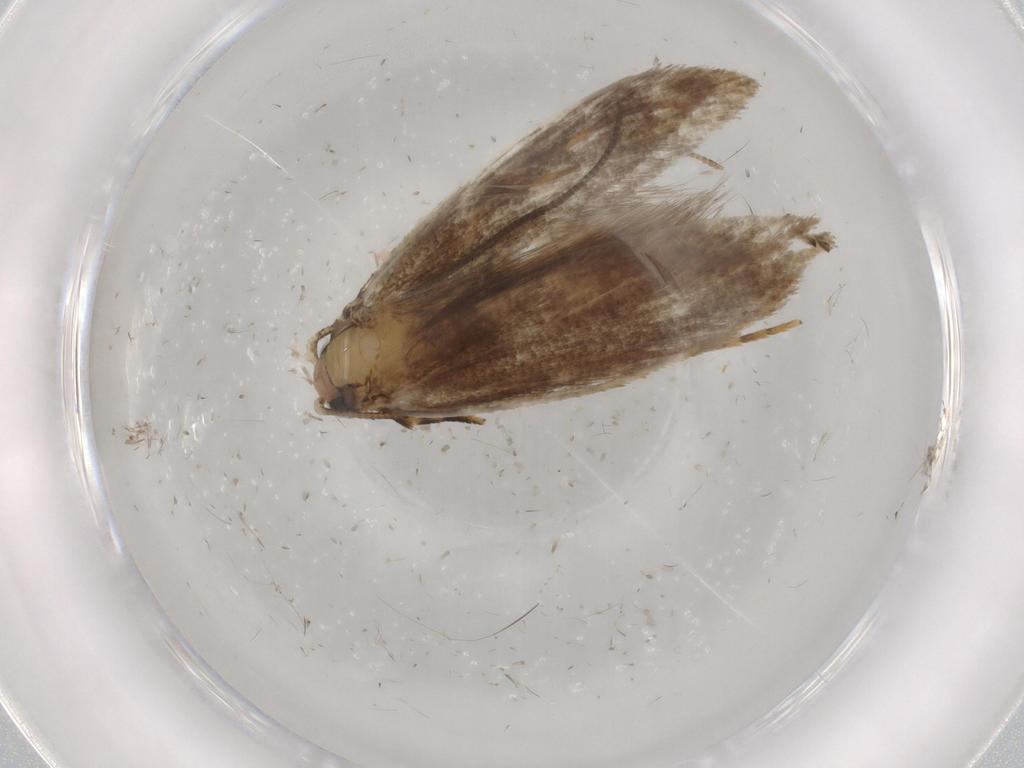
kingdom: Animalia
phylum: Arthropoda
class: Insecta
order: Lepidoptera
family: Tineidae
